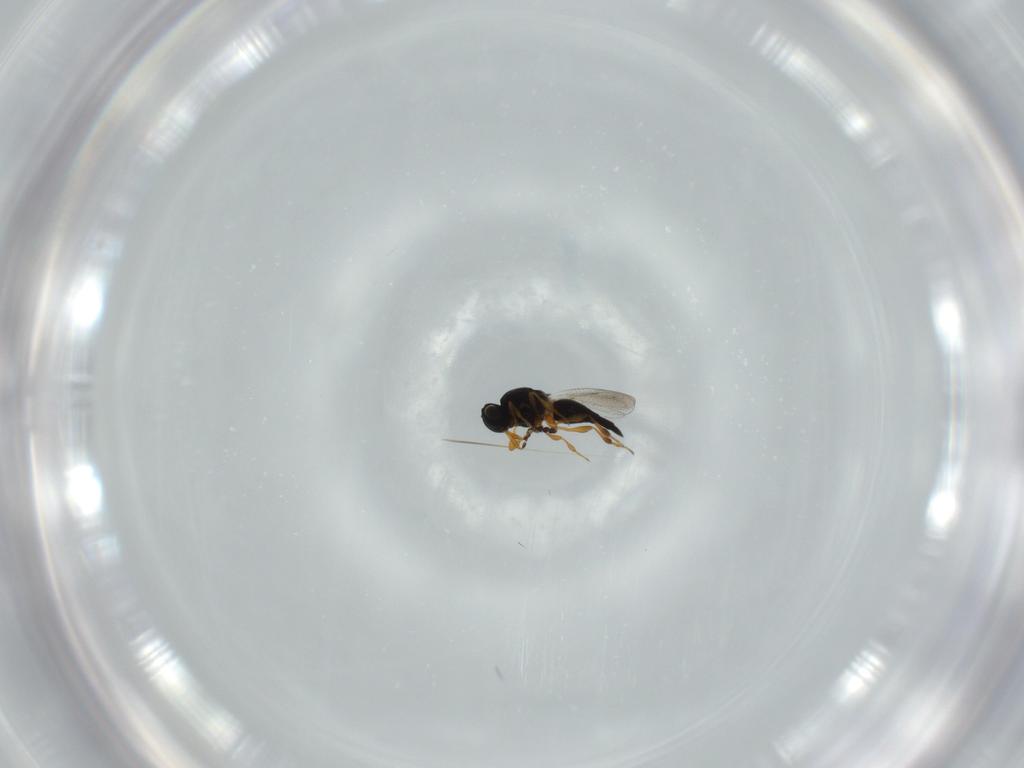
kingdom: Animalia
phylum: Arthropoda
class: Insecta
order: Hymenoptera
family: Platygastridae
